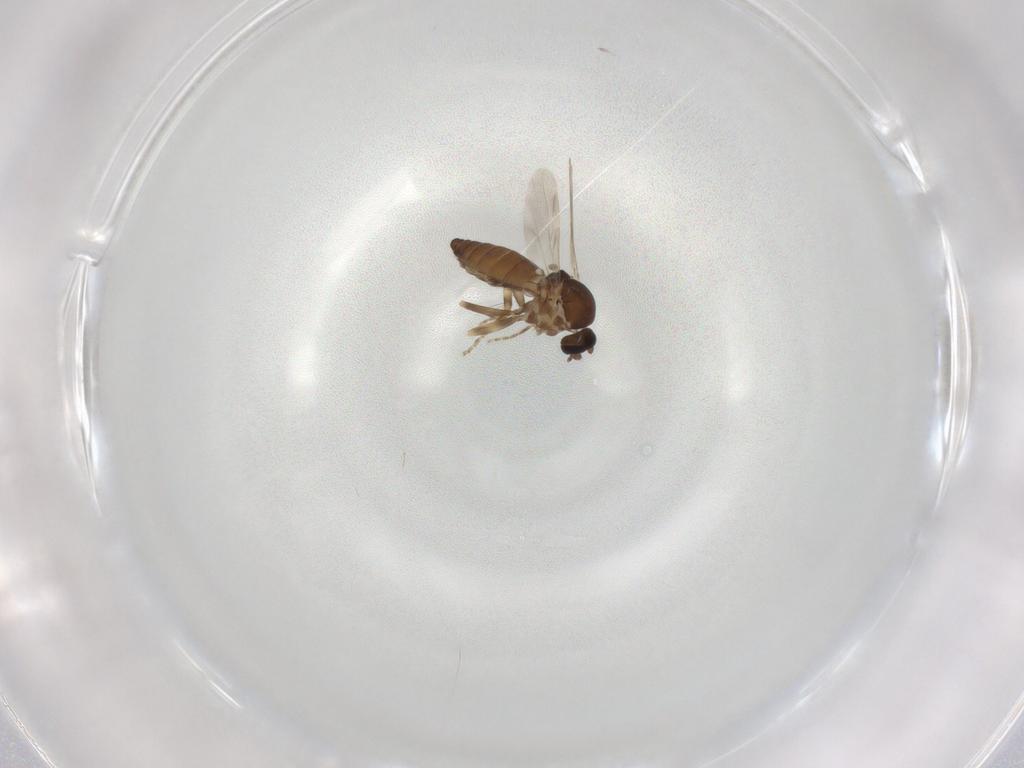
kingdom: Animalia
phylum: Arthropoda
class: Insecta
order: Diptera
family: Ceratopogonidae
